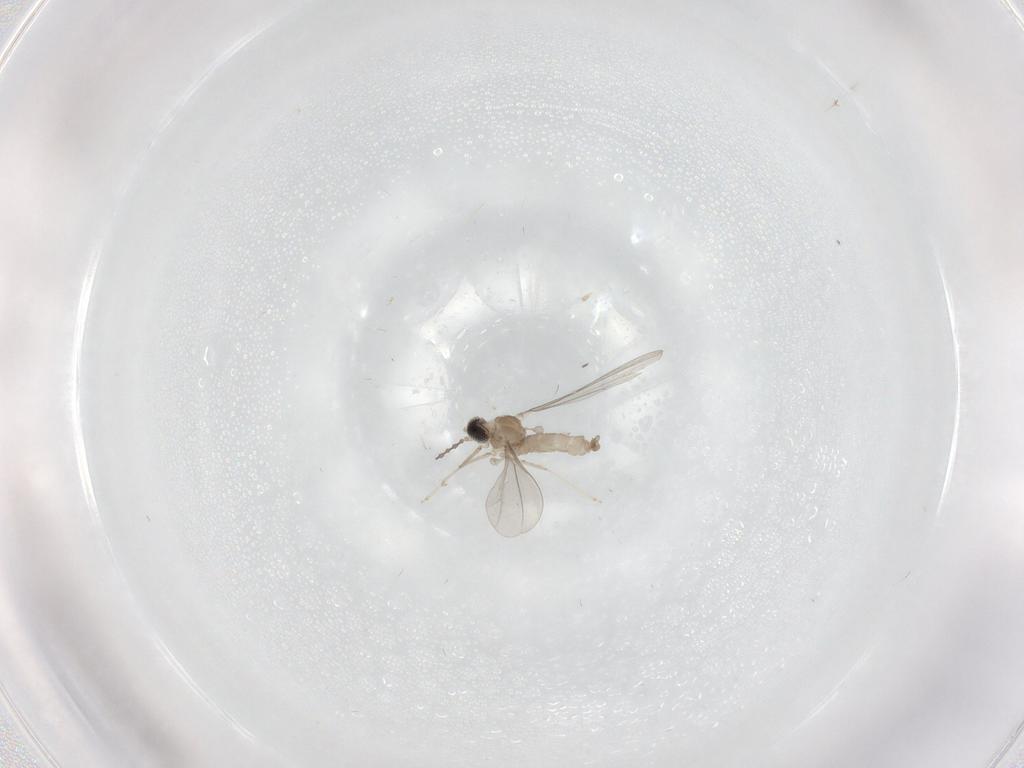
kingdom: Animalia
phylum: Arthropoda
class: Insecta
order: Diptera
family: Cecidomyiidae
